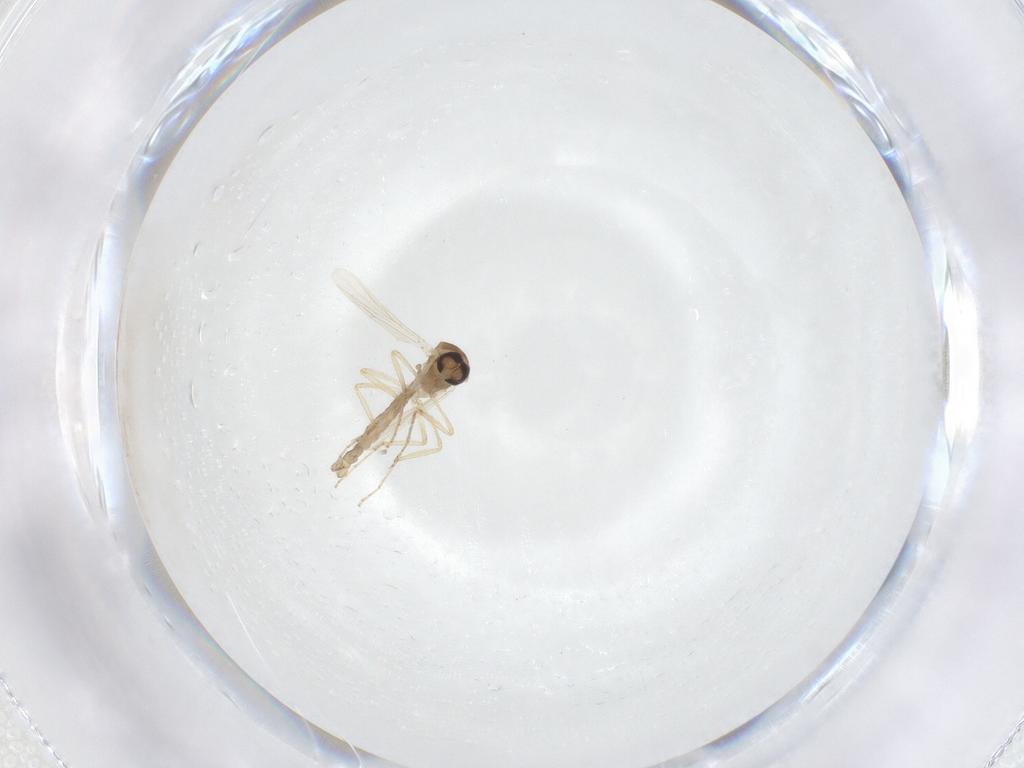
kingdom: Animalia
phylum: Arthropoda
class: Insecta
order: Diptera
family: Ceratopogonidae
